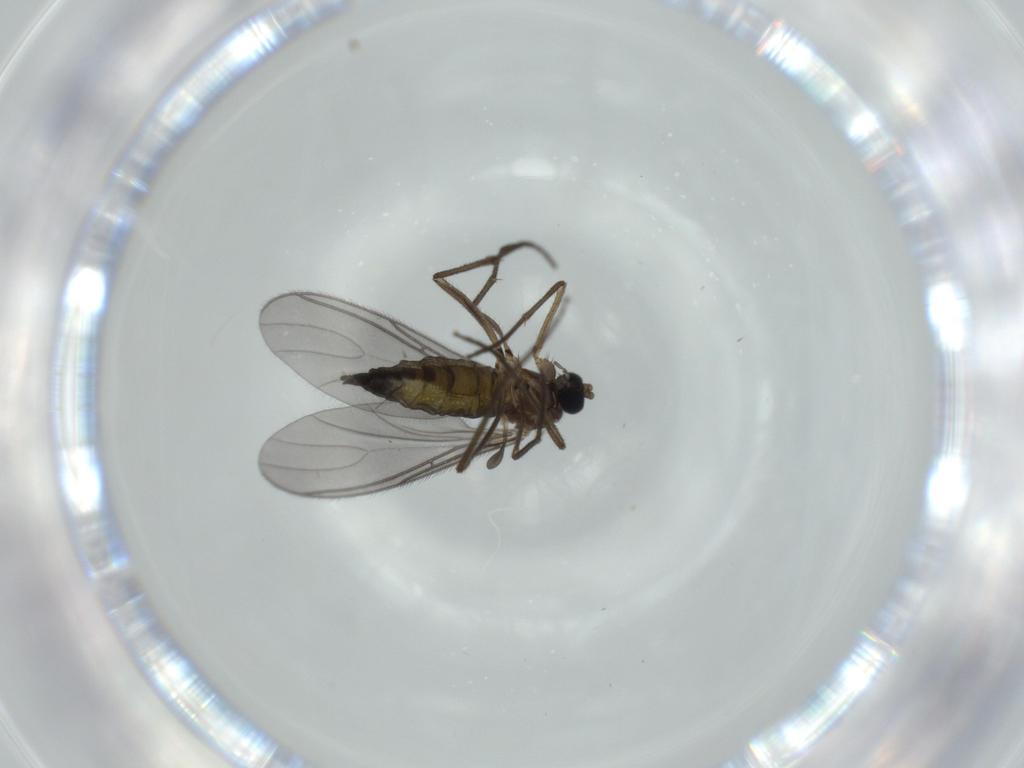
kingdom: Animalia
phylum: Arthropoda
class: Insecta
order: Diptera
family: Sciaridae
